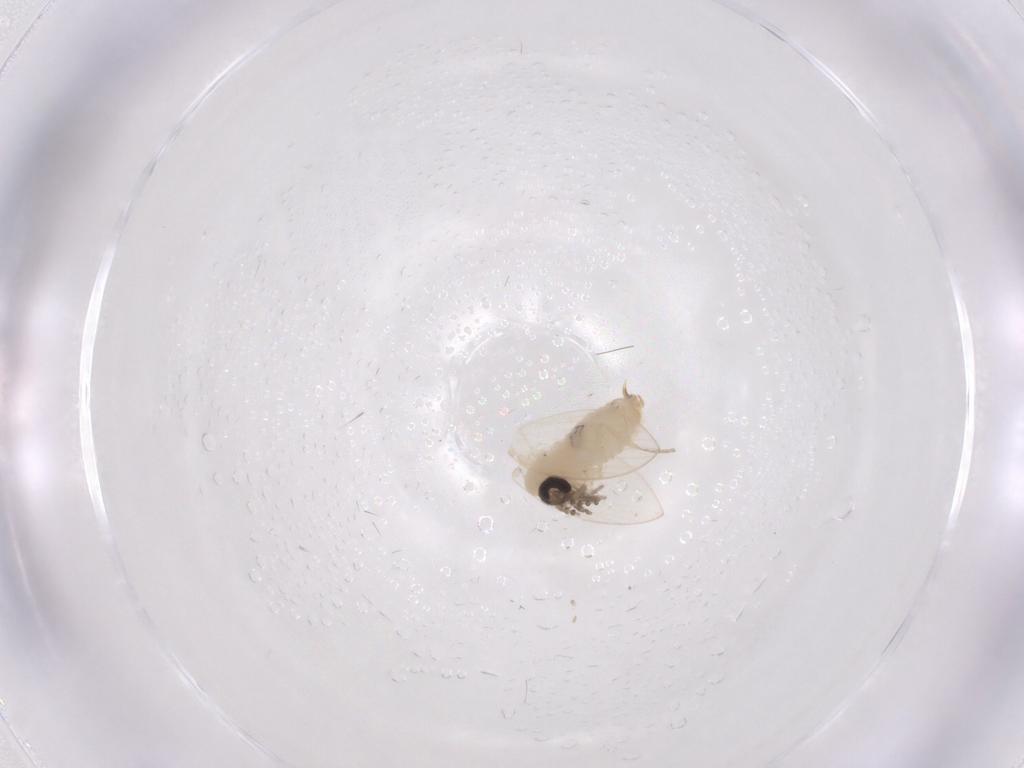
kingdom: Animalia
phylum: Arthropoda
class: Insecta
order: Diptera
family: Psychodidae
